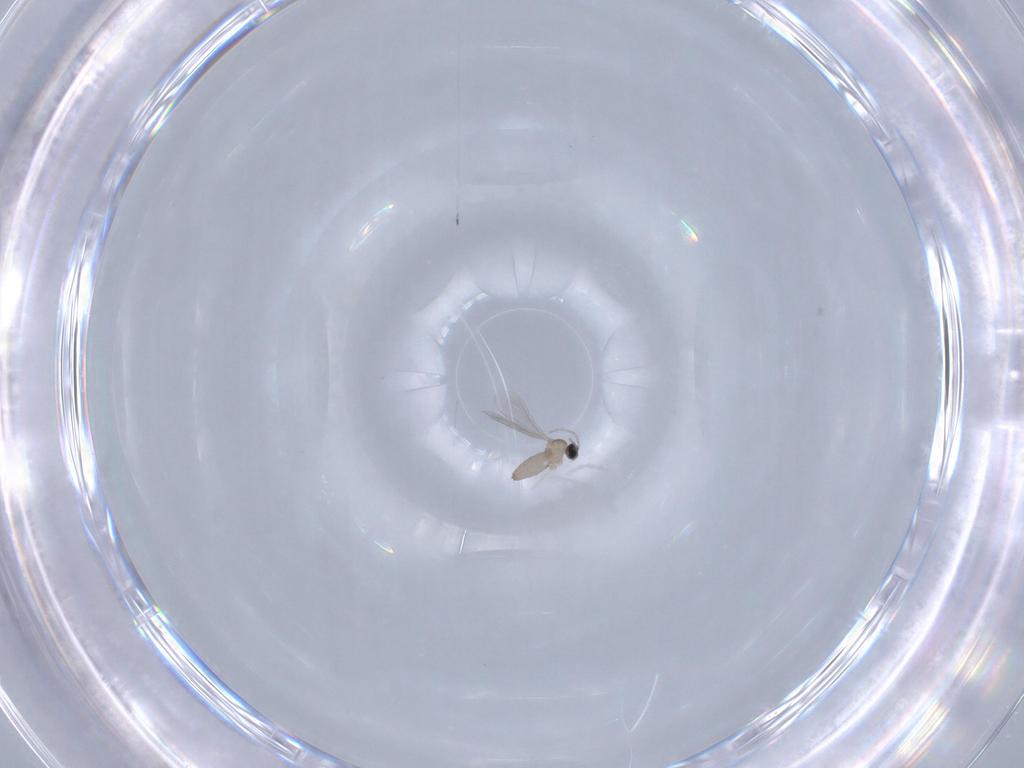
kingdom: Animalia
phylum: Arthropoda
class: Insecta
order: Diptera
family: Cecidomyiidae
